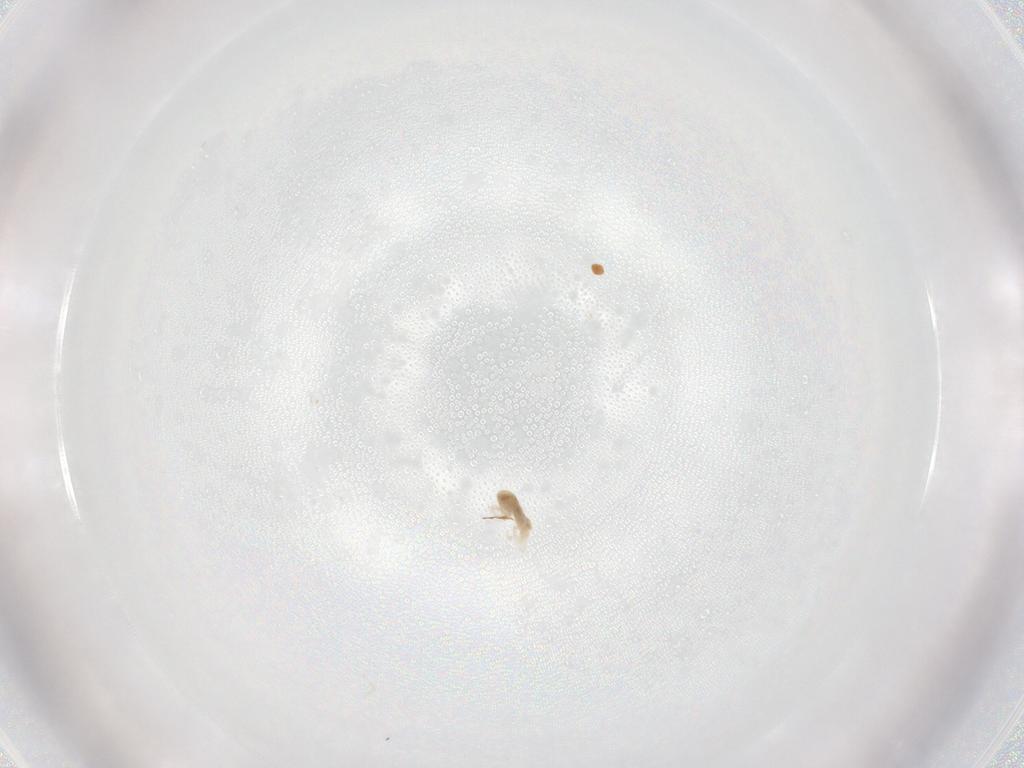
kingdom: Animalia
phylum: Arthropoda
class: Arachnida
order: Trombidiformes
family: Eupodidae
